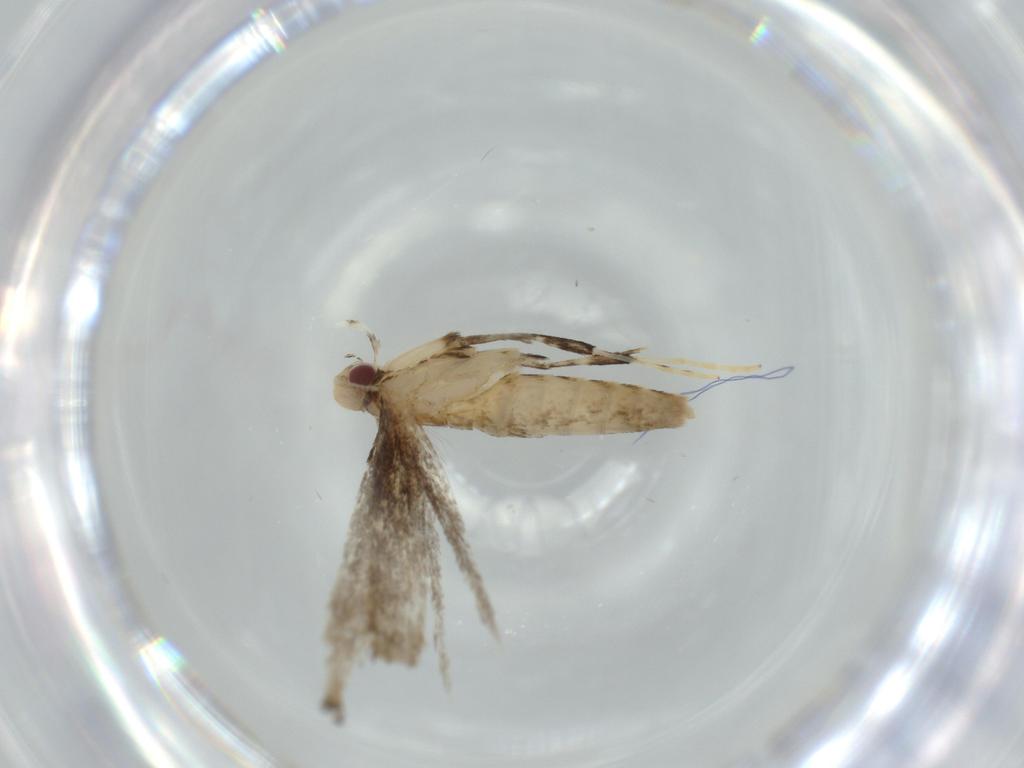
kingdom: Animalia
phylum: Arthropoda
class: Insecta
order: Lepidoptera
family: Gracillariidae
